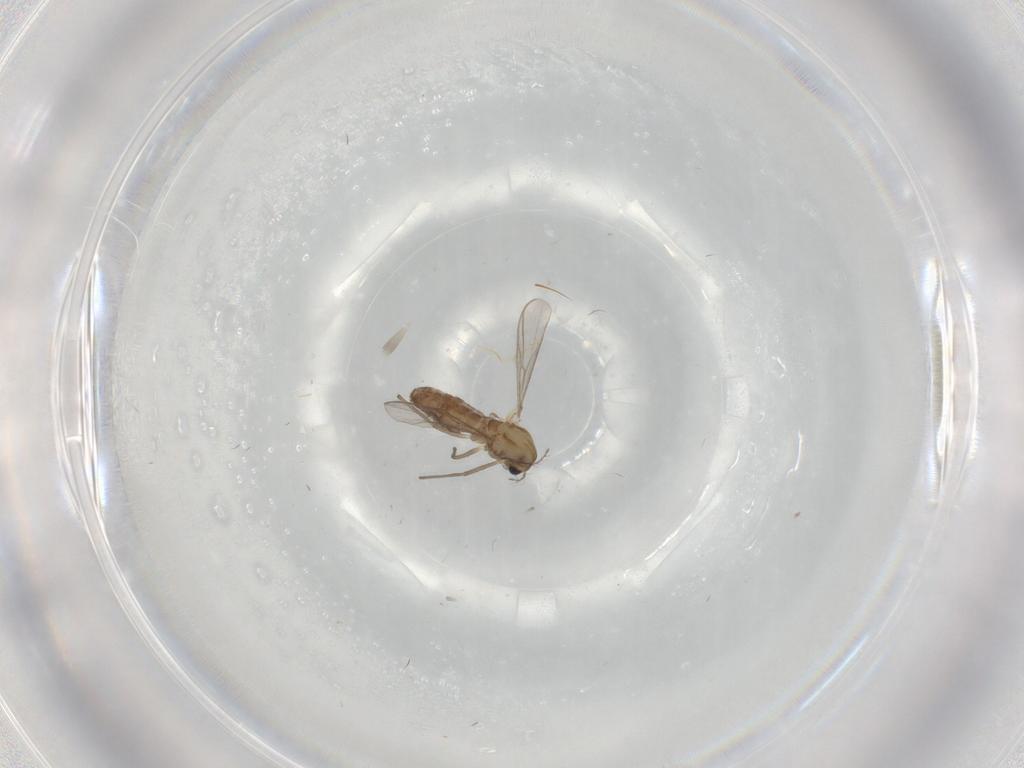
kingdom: Animalia
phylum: Arthropoda
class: Insecta
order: Diptera
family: Chironomidae
